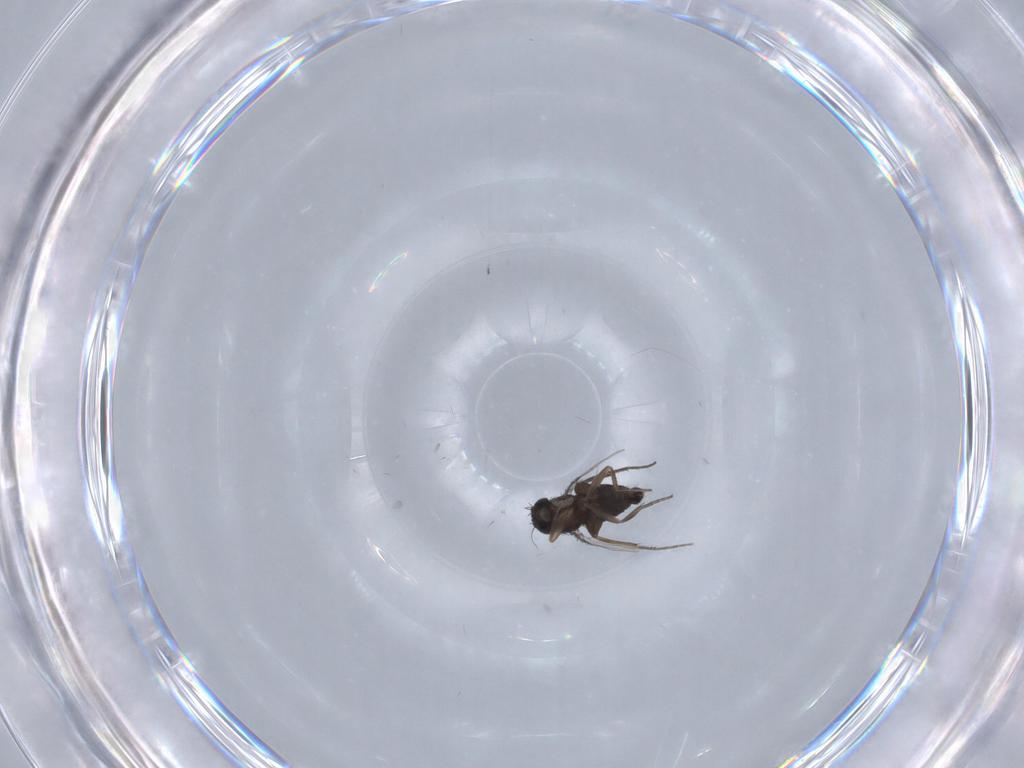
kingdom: Animalia
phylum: Arthropoda
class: Insecta
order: Diptera
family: Phoridae
